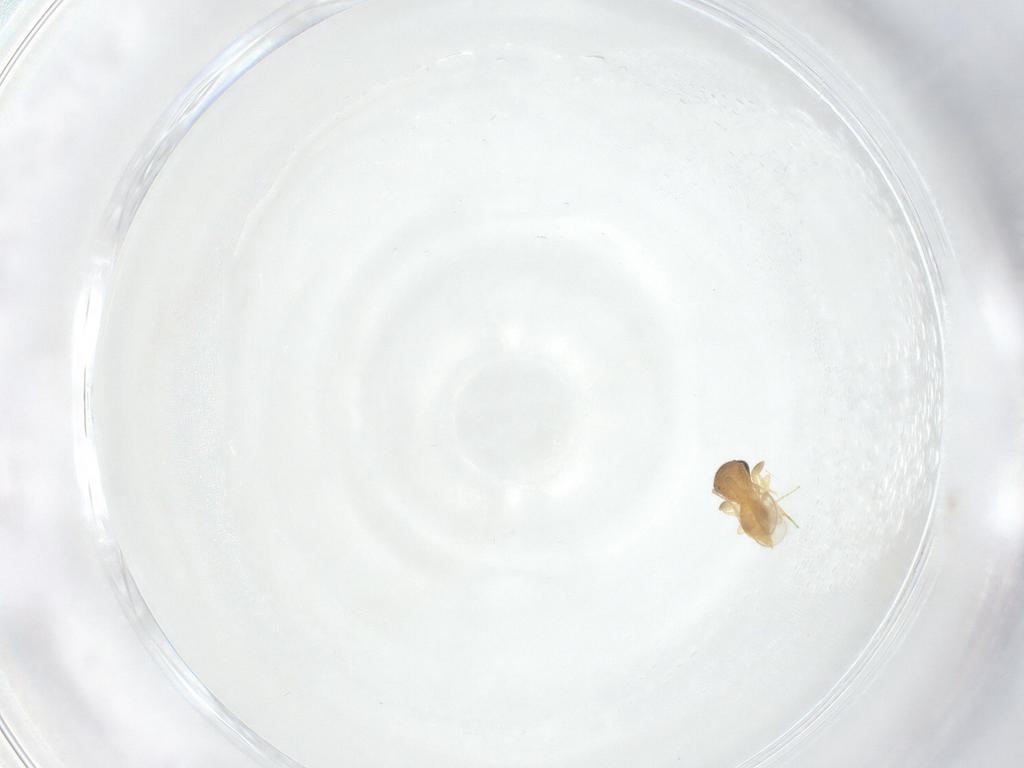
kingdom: Animalia
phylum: Arthropoda
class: Insecta
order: Hymenoptera
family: Scelionidae
